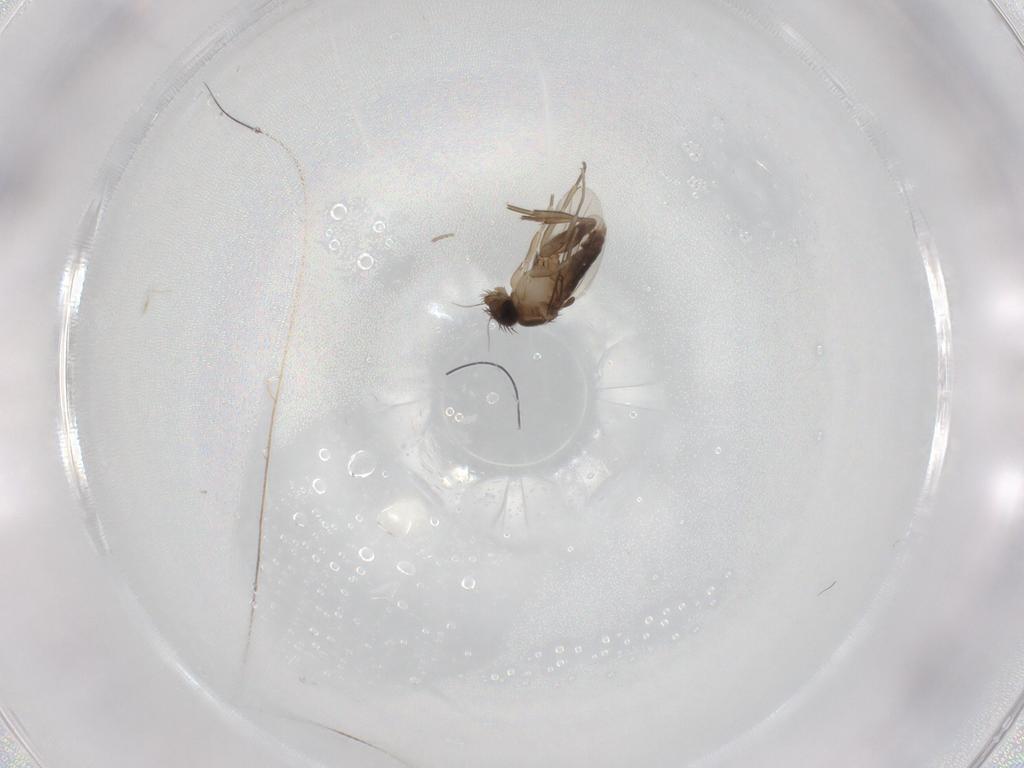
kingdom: Animalia
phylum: Arthropoda
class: Insecta
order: Diptera
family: Phoridae
